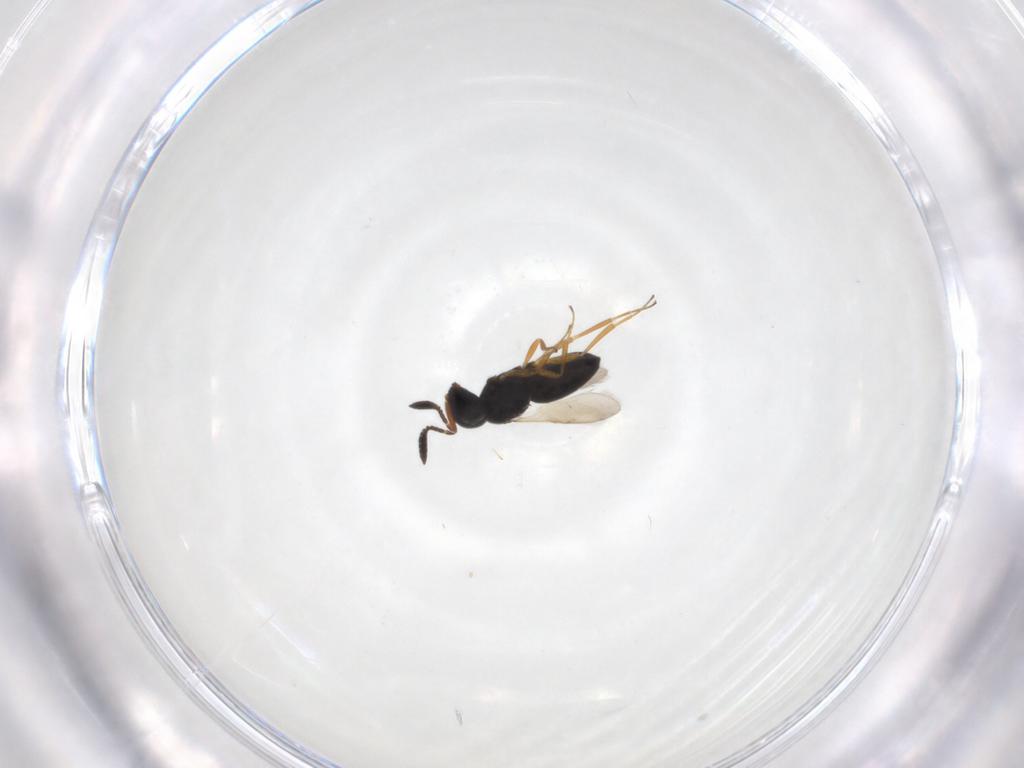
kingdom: Animalia
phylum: Arthropoda
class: Insecta
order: Hymenoptera
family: Scelionidae
